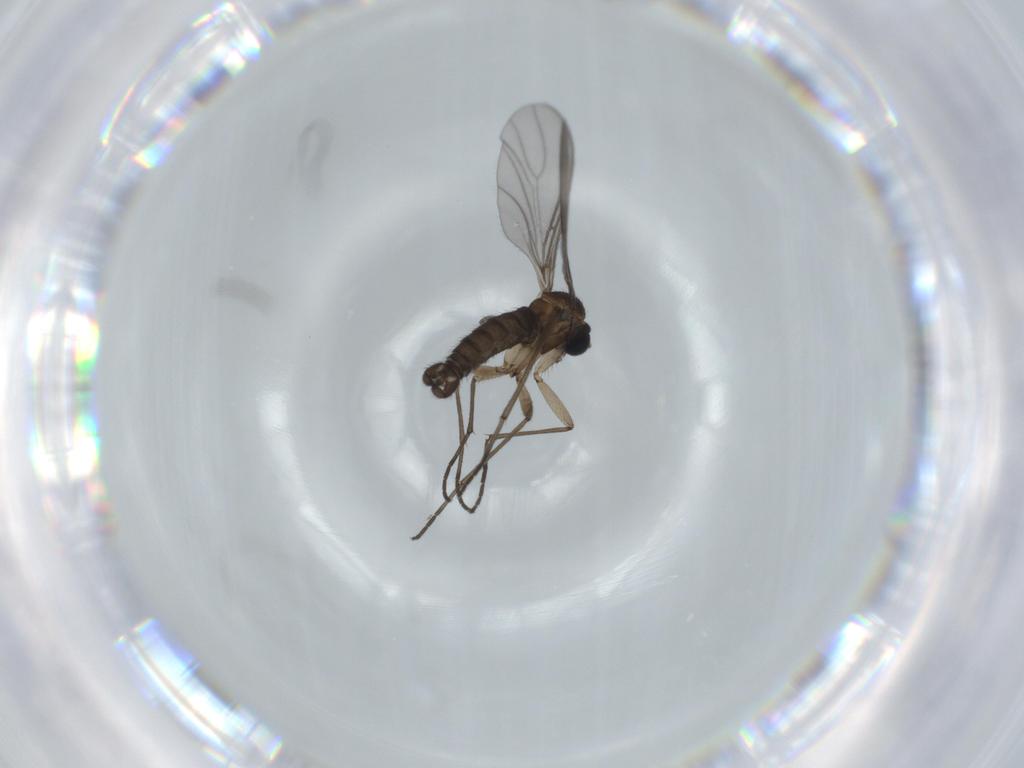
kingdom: Animalia
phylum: Arthropoda
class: Insecta
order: Diptera
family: Sciaridae
